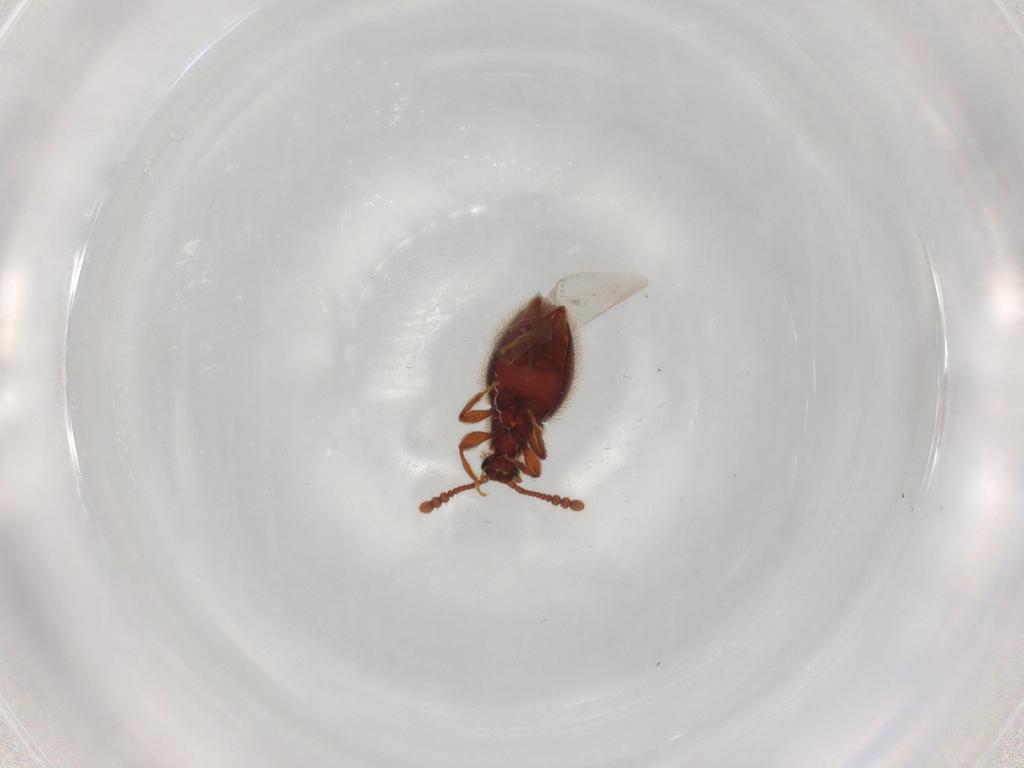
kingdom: Animalia
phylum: Arthropoda
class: Insecta
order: Coleoptera
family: Staphylinidae
